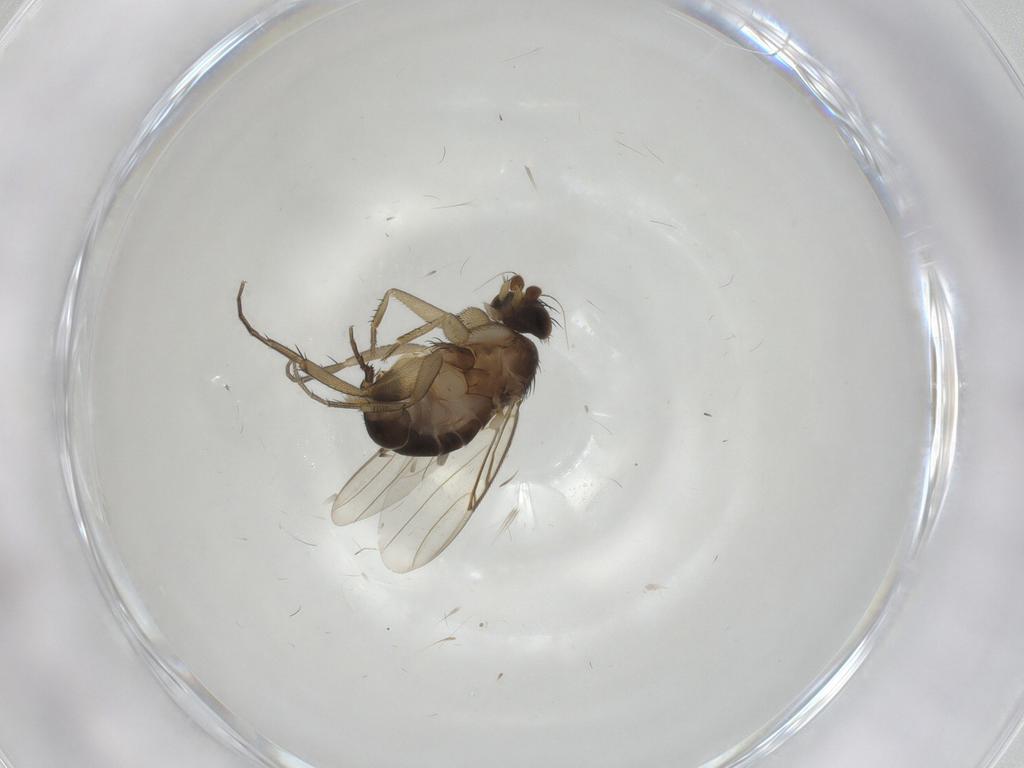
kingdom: Animalia
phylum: Arthropoda
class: Insecta
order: Diptera
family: Phoridae
